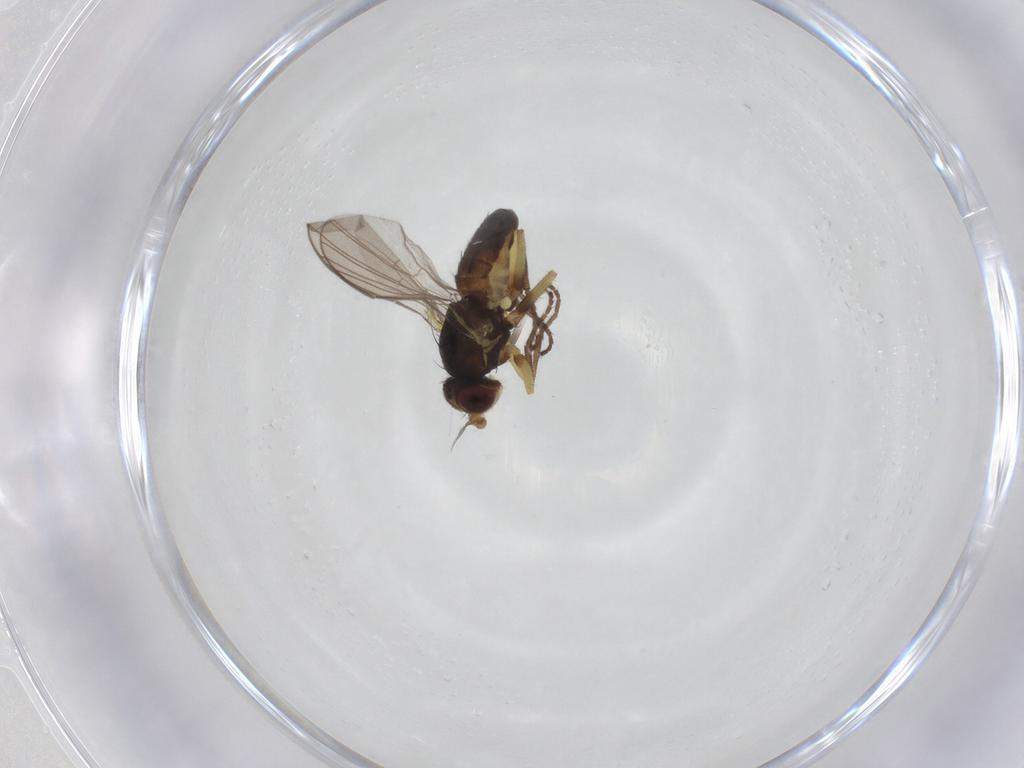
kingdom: Animalia
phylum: Arthropoda
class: Insecta
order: Diptera
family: Agromyzidae
